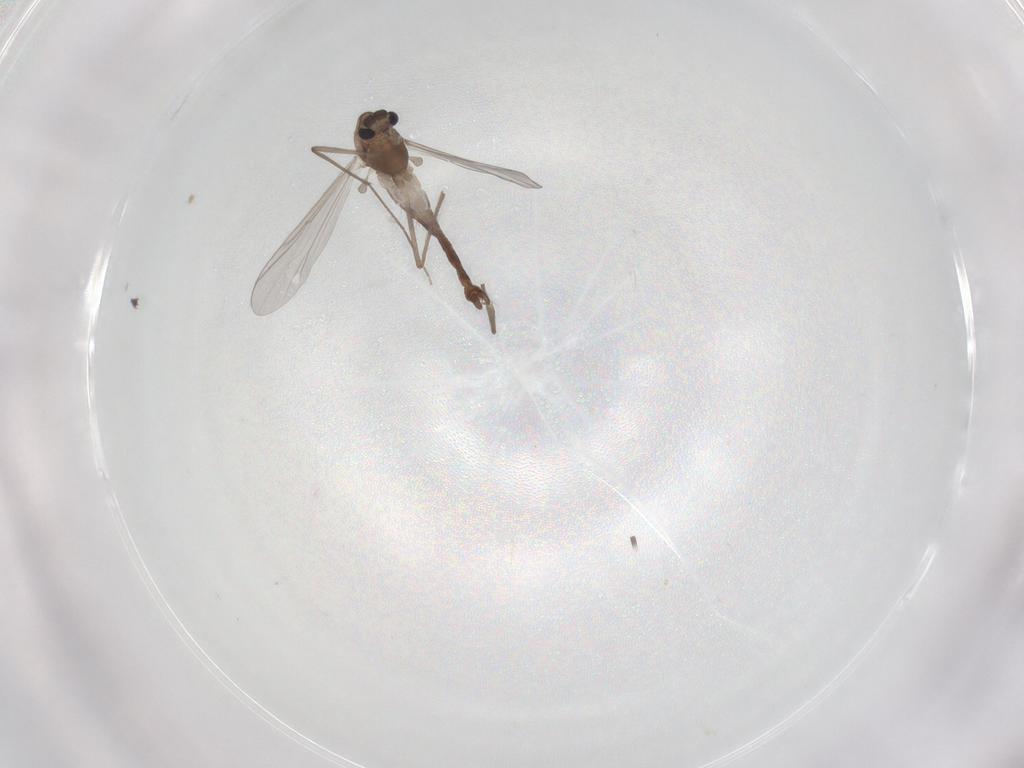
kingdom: Animalia
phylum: Arthropoda
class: Insecta
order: Diptera
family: Chironomidae
